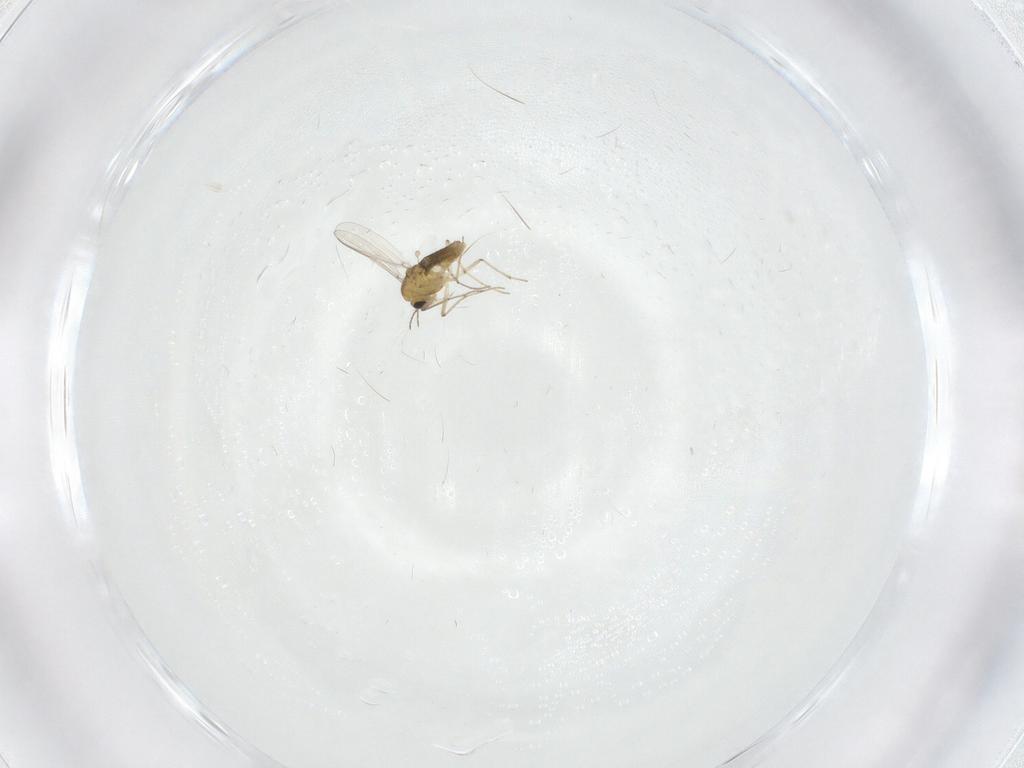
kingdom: Animalia
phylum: Arthropoda
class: Insecta
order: Diptera
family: Chironomidae
